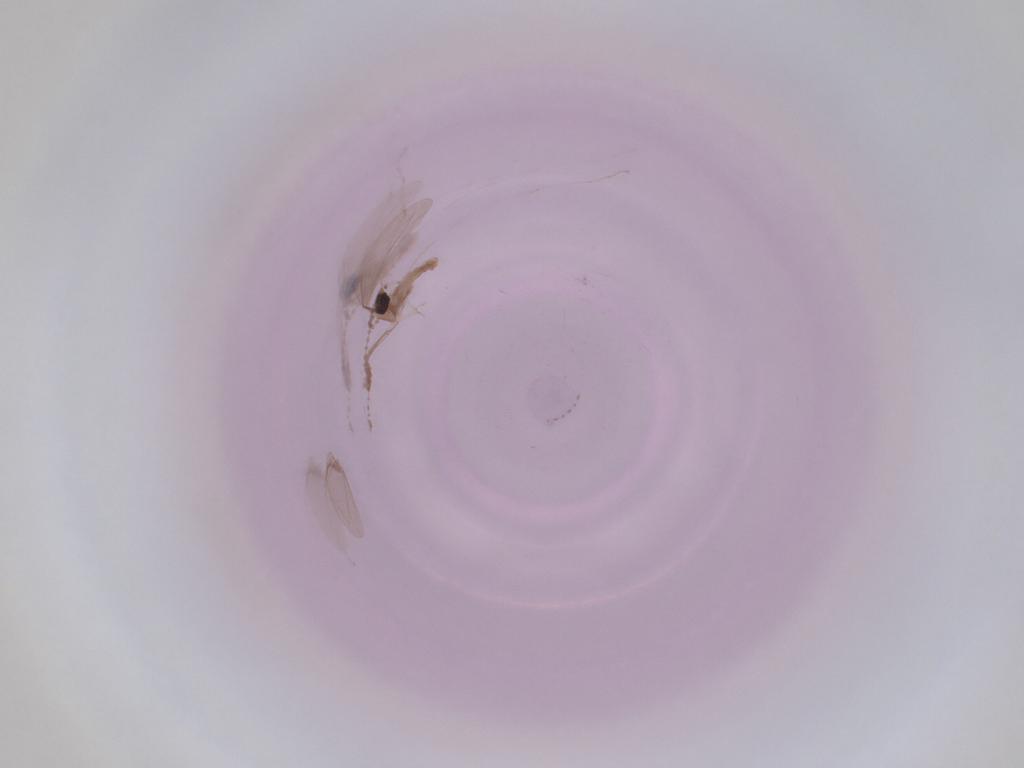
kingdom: Animalia
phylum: Arthropoda
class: Insecta
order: Diptera
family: Cecidomyiidae
